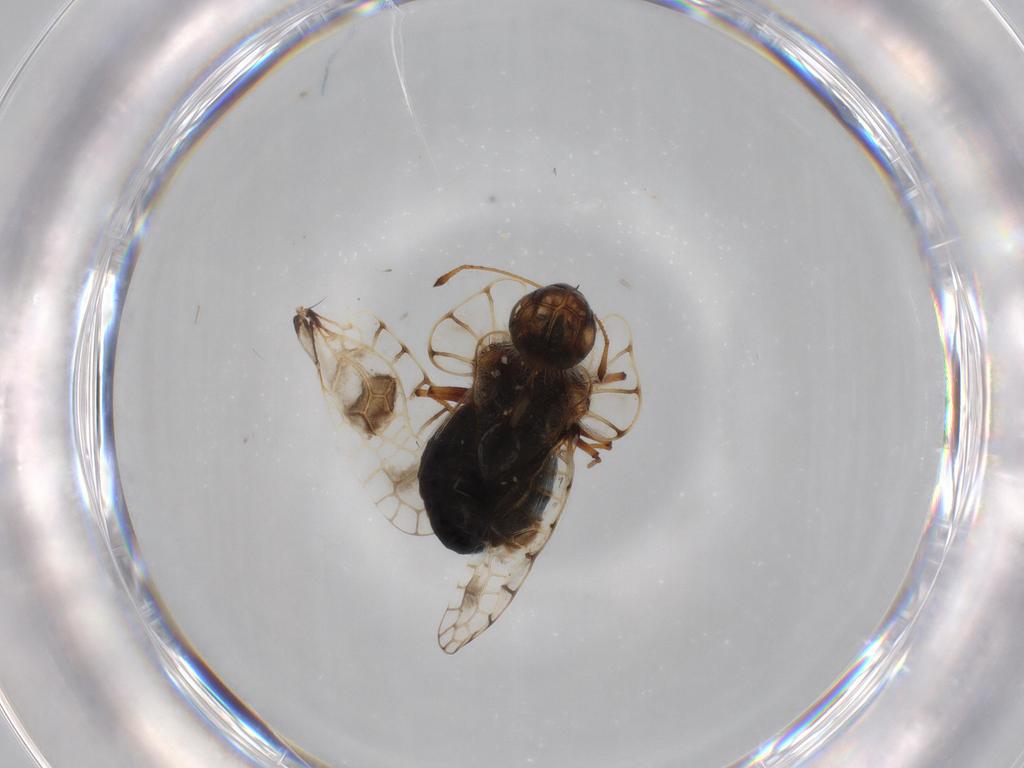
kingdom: Animalia
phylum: Arthropoda
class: Insecta
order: Hemiptera
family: Tingidae
